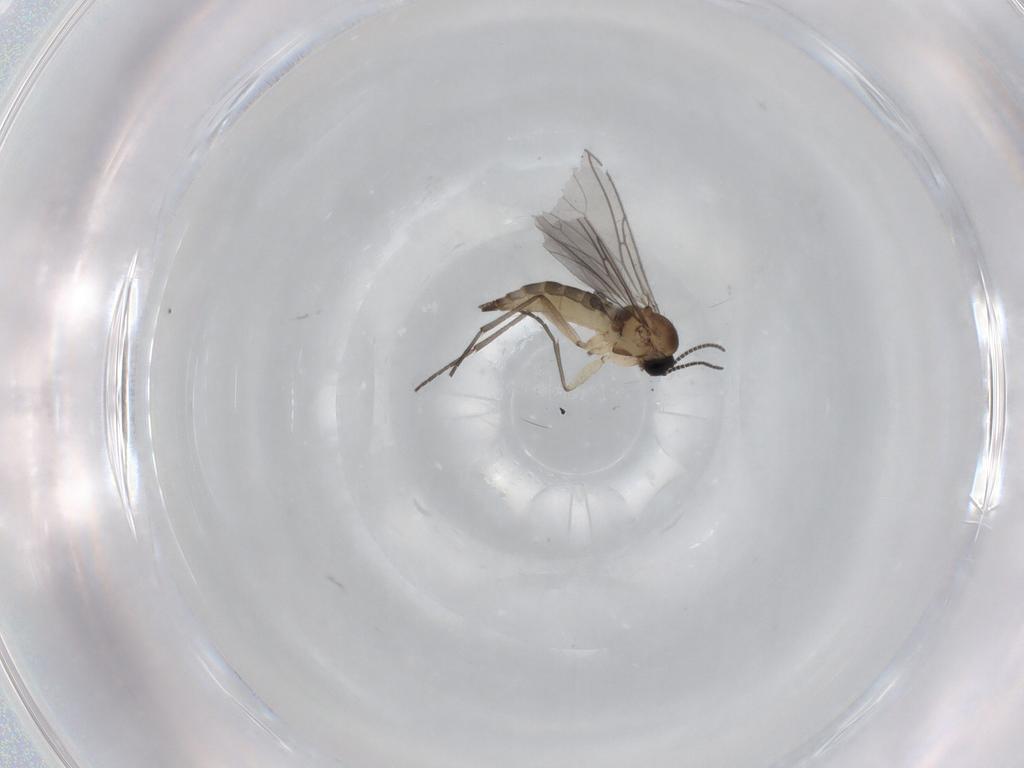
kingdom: Animalia
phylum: Arthropoda
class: Insecta
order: Diptera
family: Sciaridae
